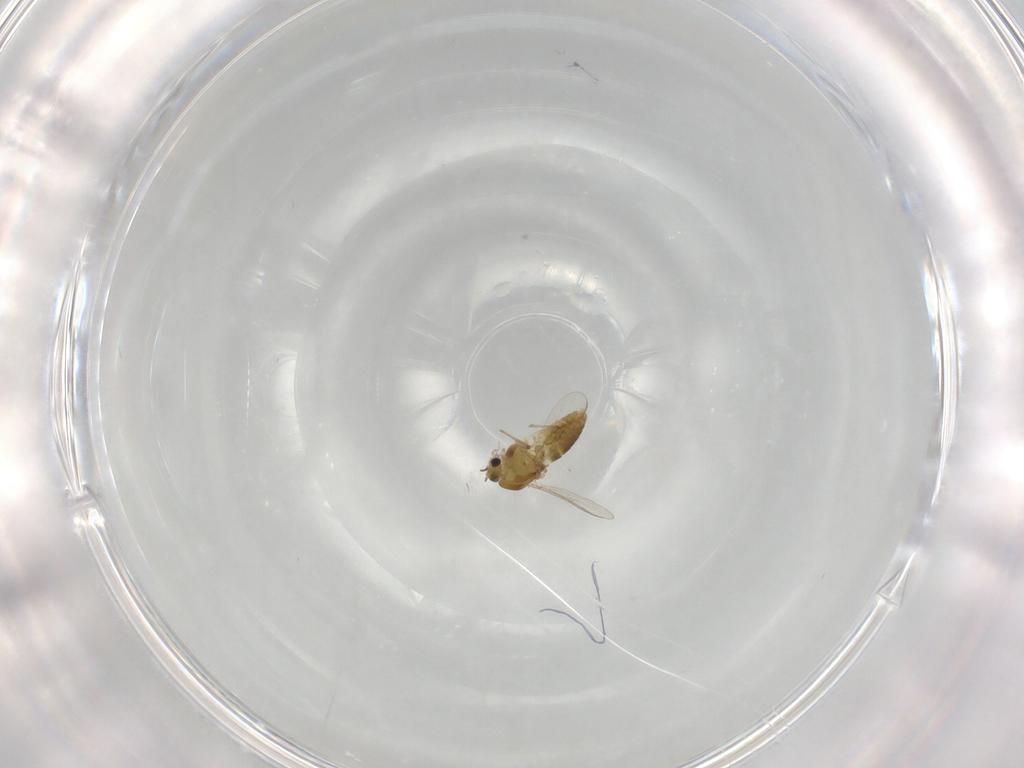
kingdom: Animalia
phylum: Arthropoda
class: Insecta
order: Diptera
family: Chironomidae
